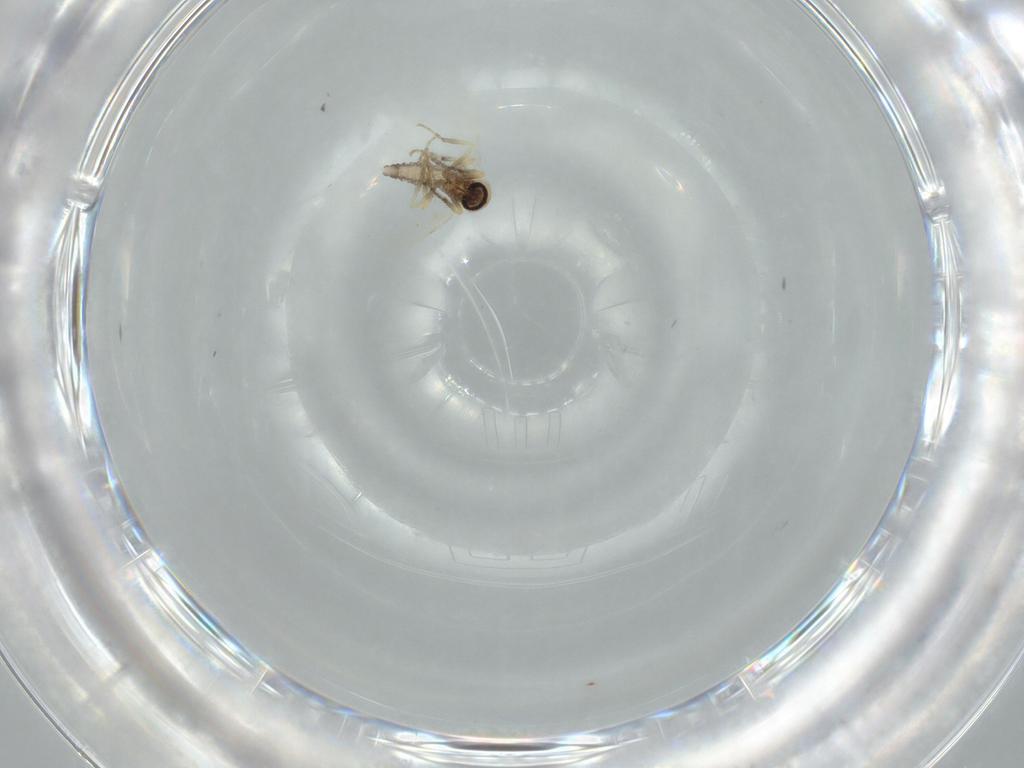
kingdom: Animalia
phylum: Arthropoda
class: Insecta
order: Diptera
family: Ceratopogonidae
